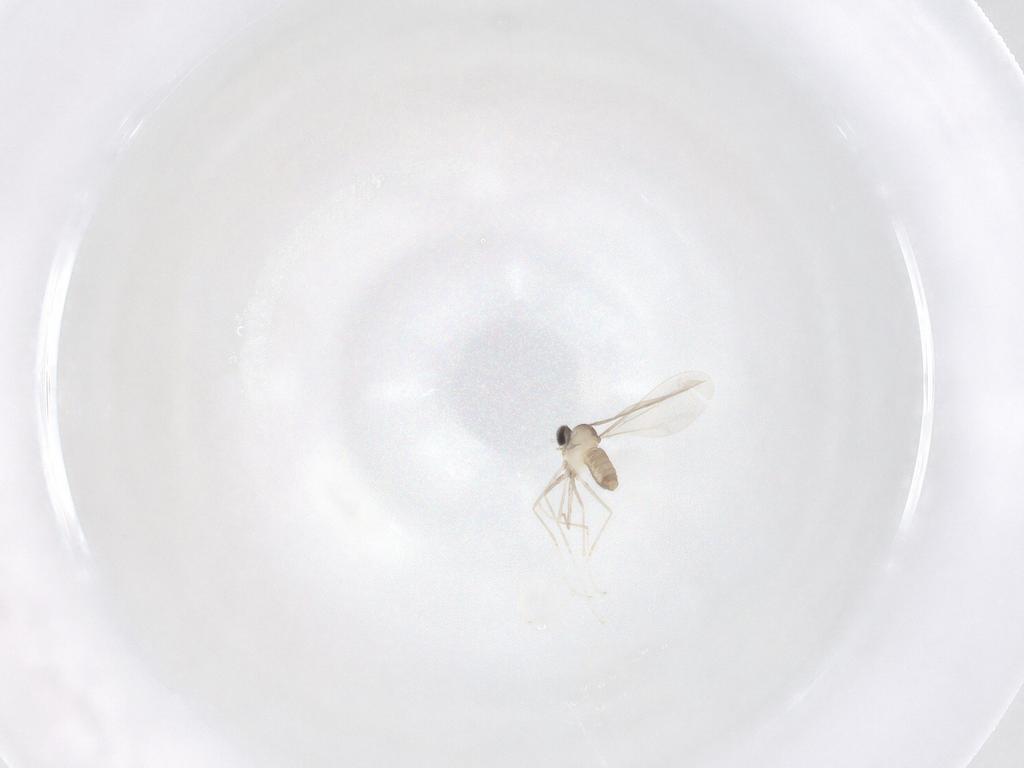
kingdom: Animalia
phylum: Arthropoda
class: Insecta
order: Diptera
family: Cecidomyiidae
